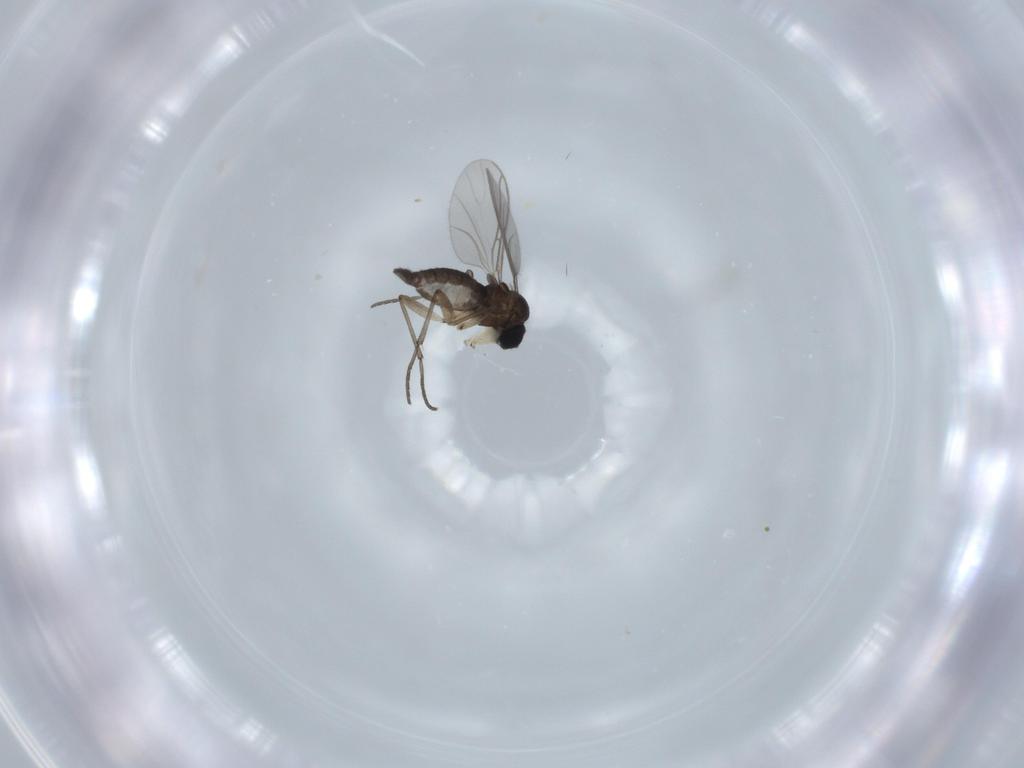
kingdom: Animalia
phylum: Arthropoda
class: Insecta
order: Diptera
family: Sciaridae
